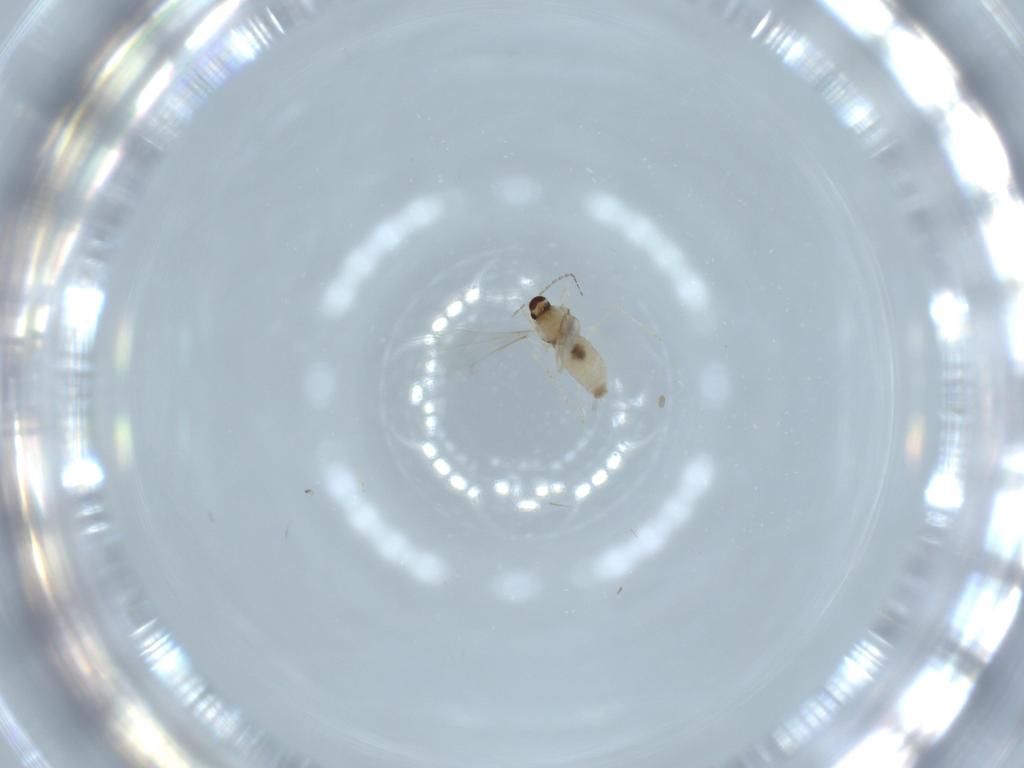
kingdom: Animalia
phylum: Arthropoda
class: Insecta
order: Diptera
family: Cecidomyiidae
